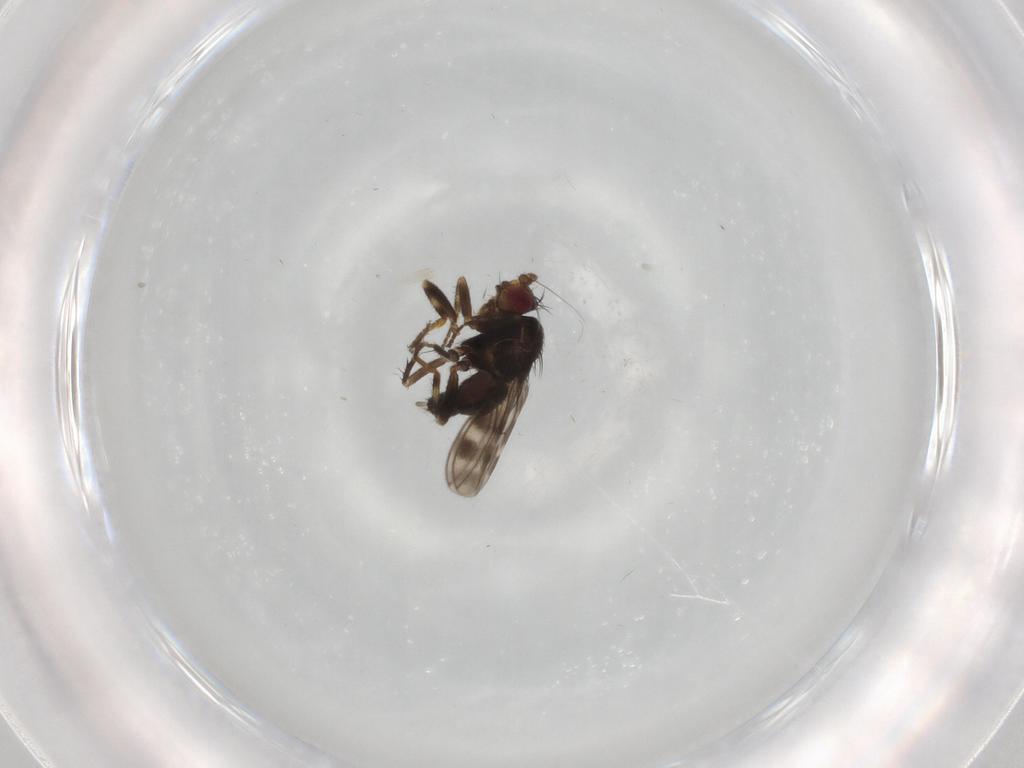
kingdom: Animalia
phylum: Arthropoda
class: Insecta
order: Diptera
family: Sphaeroceridae
